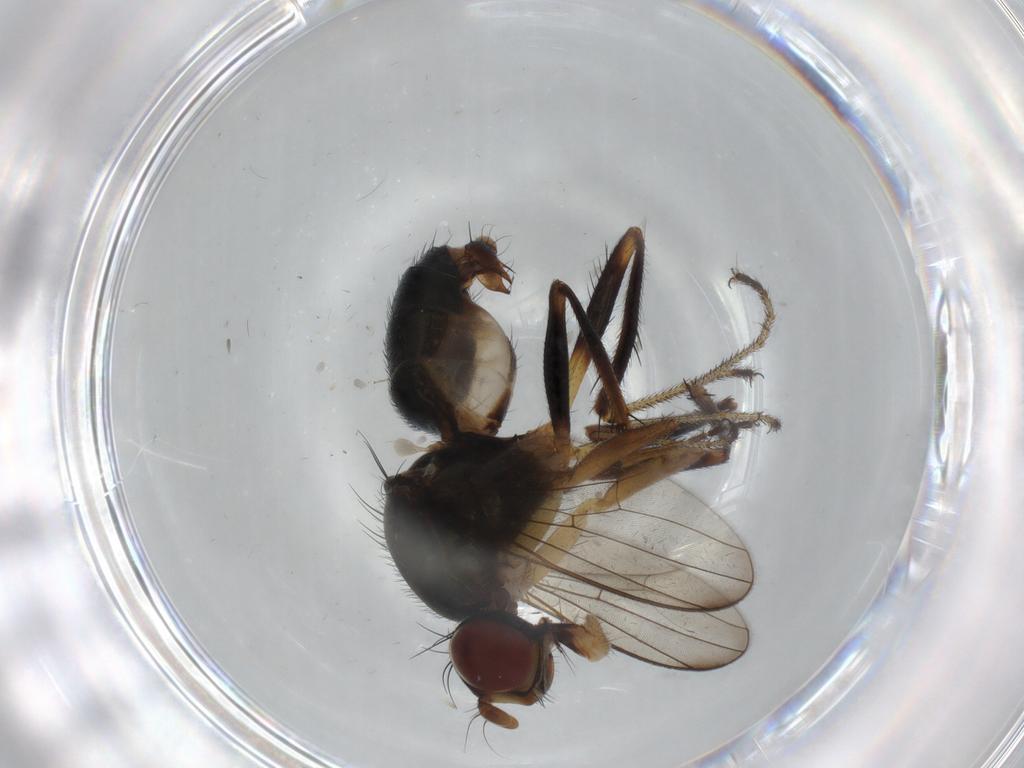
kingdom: Animalia
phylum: Arthropoda
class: Insecta
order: Diptera
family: Sepsidae
